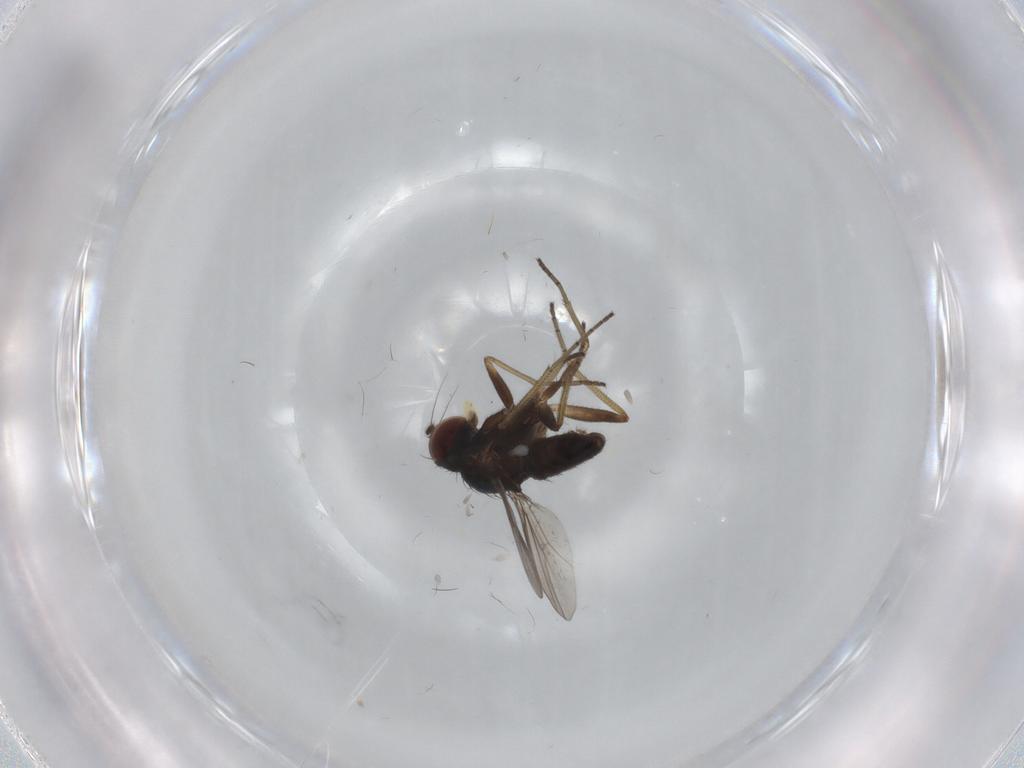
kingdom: Animalia
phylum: Arthropoda
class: Insecta
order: Diptera
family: Dolichopodidae
